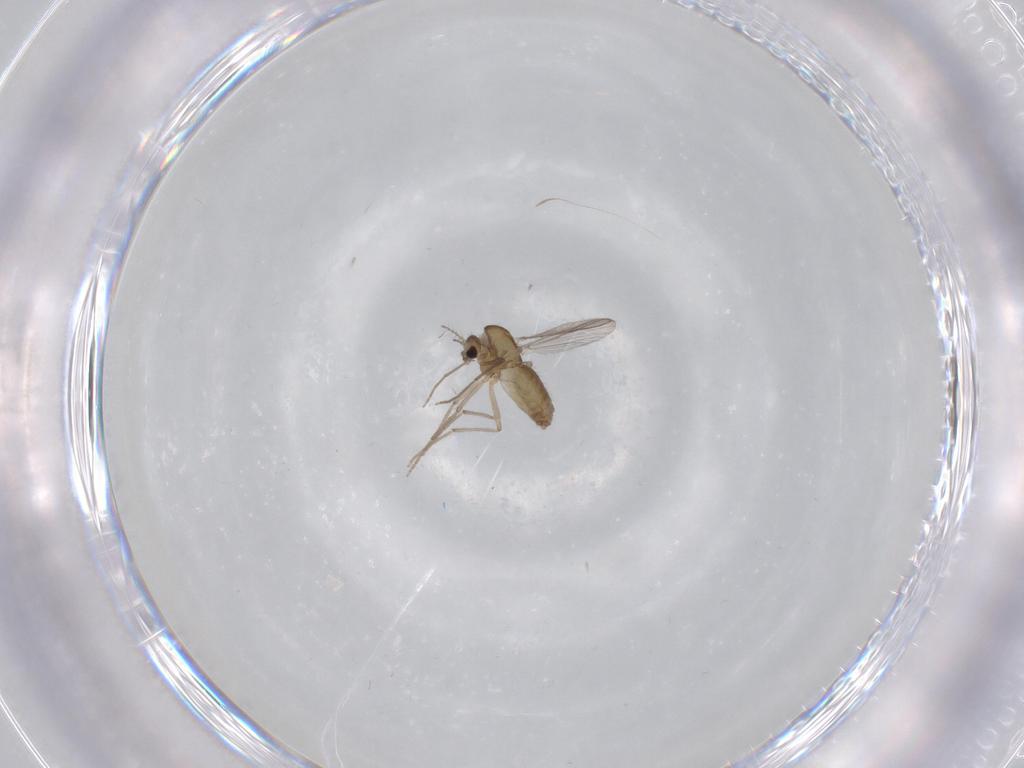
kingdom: Animalia
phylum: Arthropoda
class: Insecta
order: Diptera
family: Chironomidae
